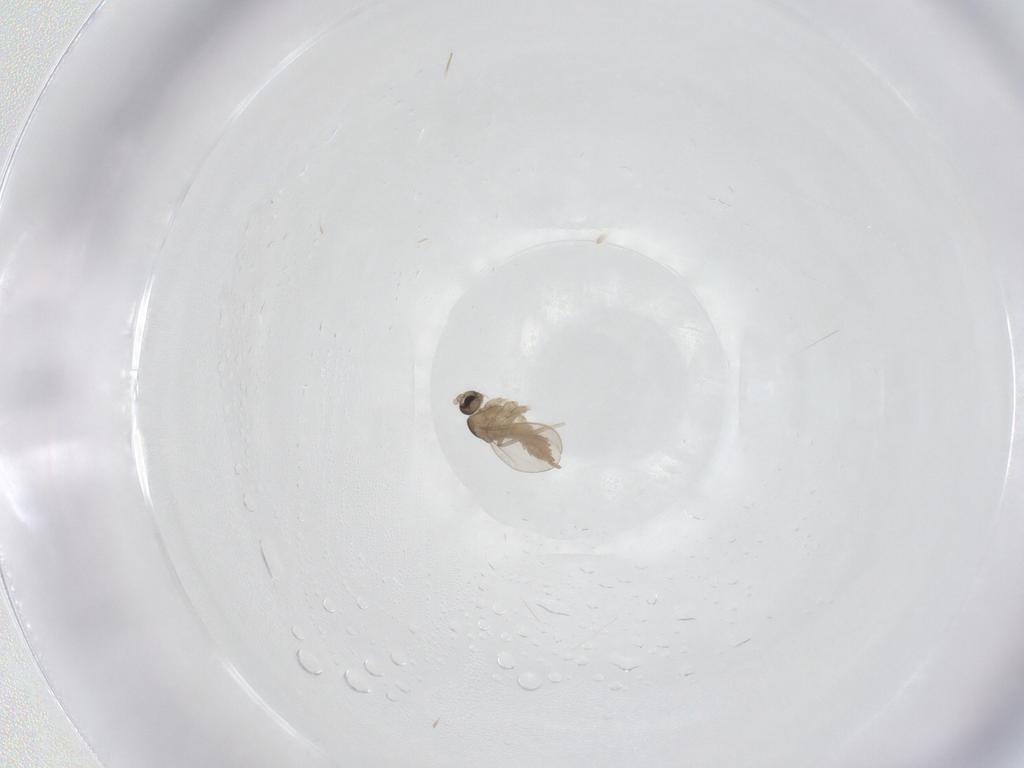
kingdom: Animalia
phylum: Arthropoda
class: Insecta
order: Diptera
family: Cecidomyiidae
